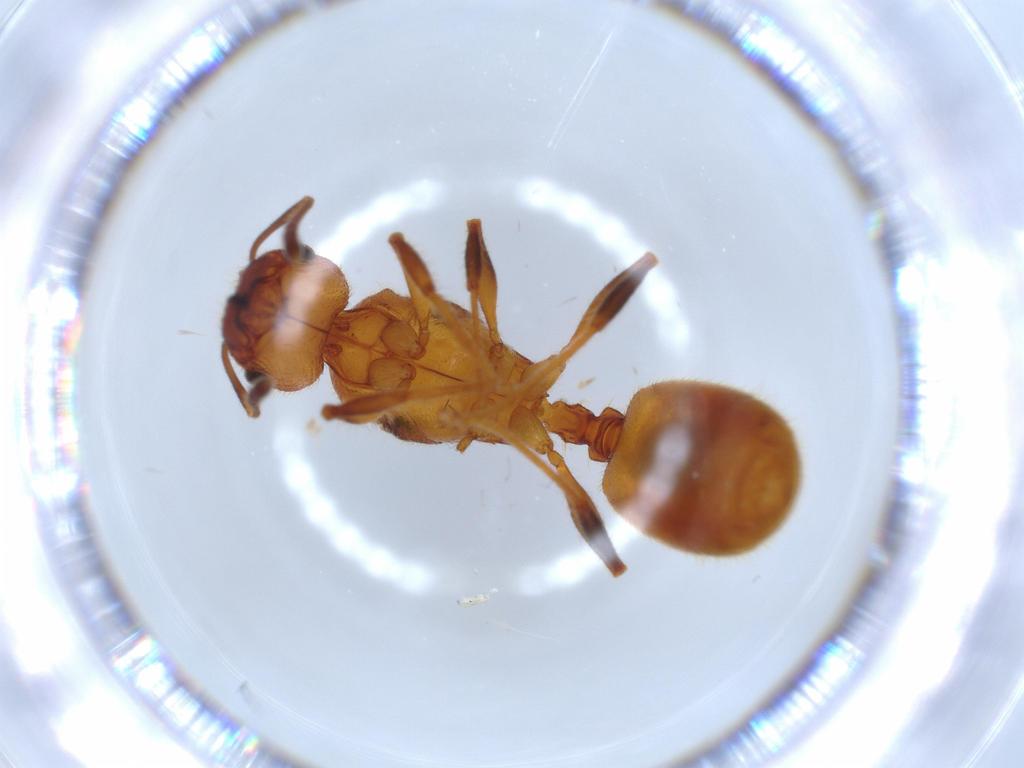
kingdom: Animalia
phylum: Arthropoda
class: Insecta
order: Hymenoptera
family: Formicidae
